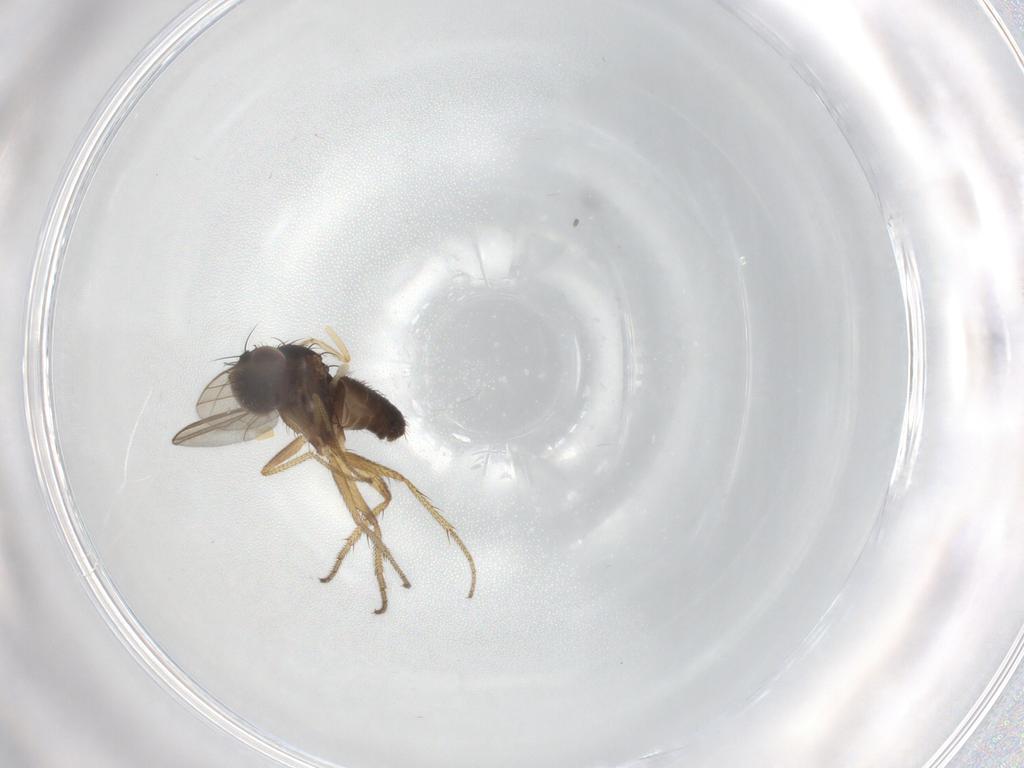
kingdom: Animalia
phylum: Arthropoda
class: Insecta
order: Diptera
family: Ceratopogonidae
